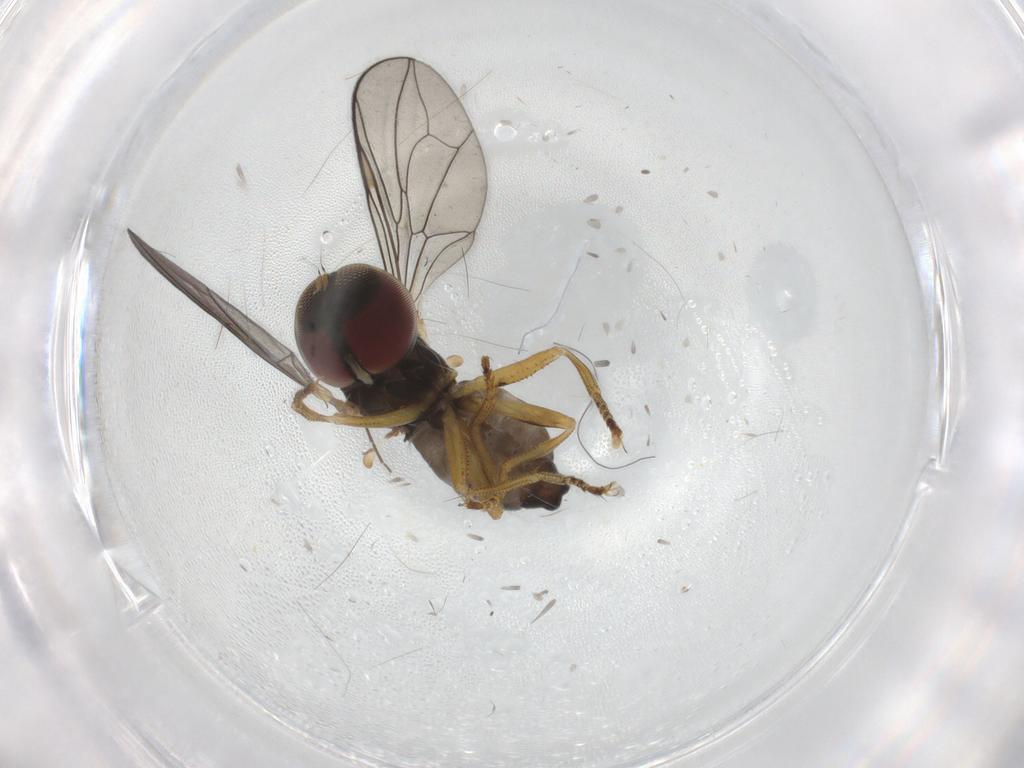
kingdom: Animalia
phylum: Arthropoda
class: Insecta
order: Diptera
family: Pipunculidae
